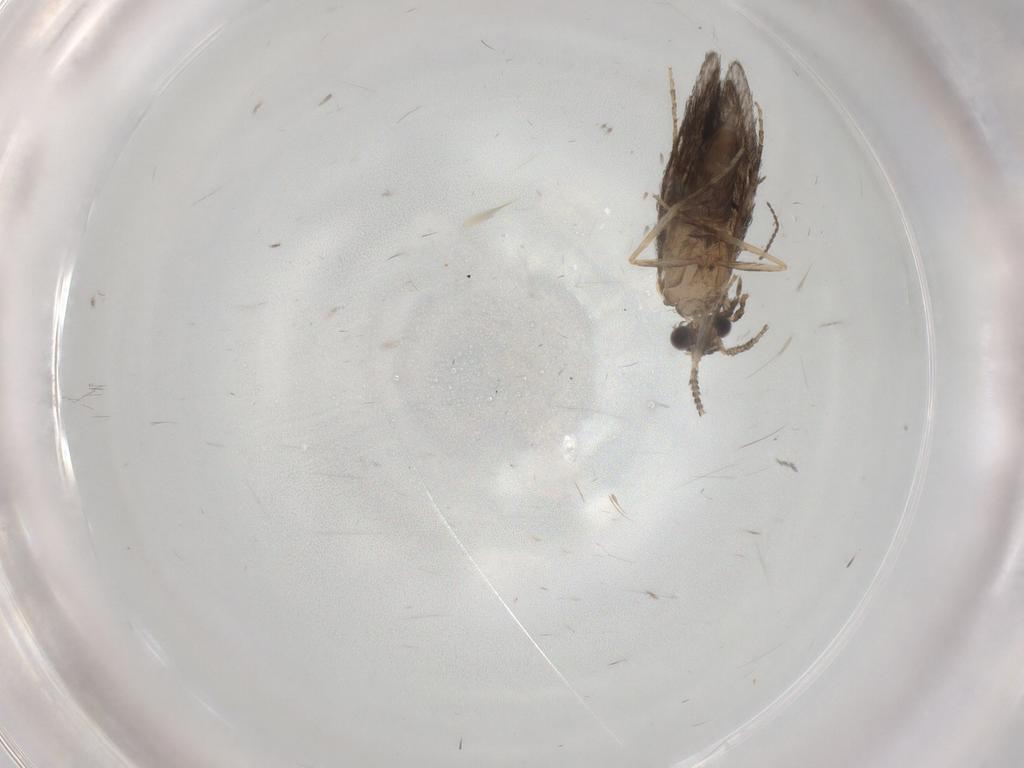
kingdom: Animalia
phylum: Arthropoda
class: Insecta
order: Trichoptera
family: Hydroptilidae
